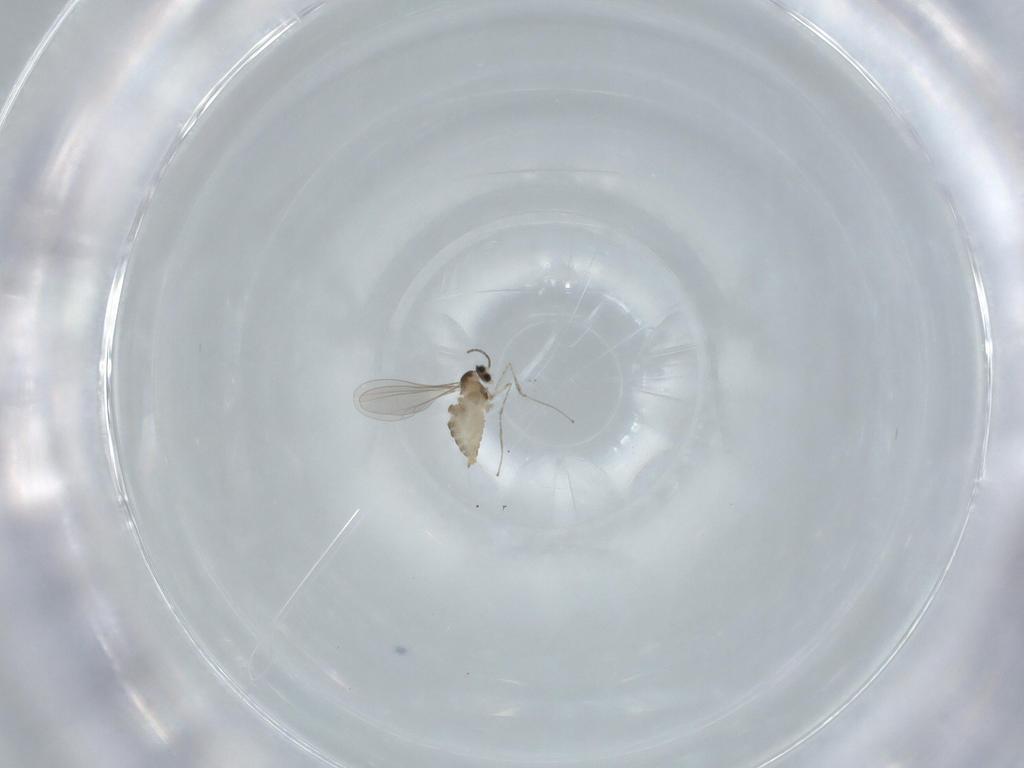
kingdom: Animalia
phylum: Arthropoda
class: Insecta
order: Diptera
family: Cecidomyiidae
